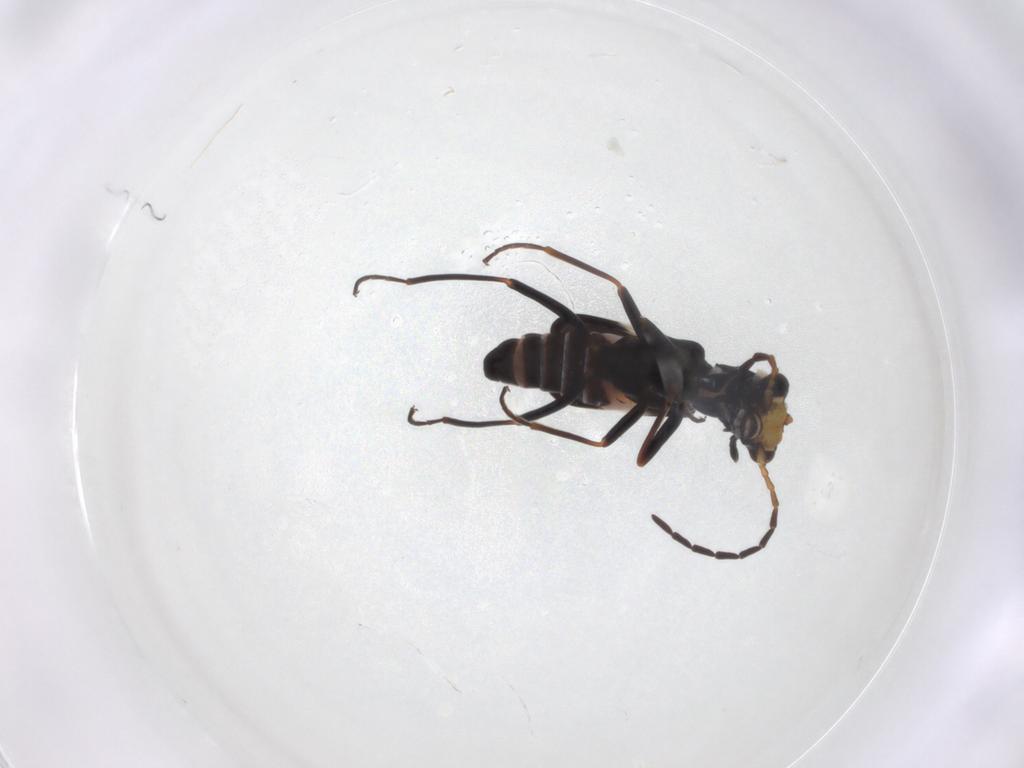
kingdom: Animalia
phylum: Arthropoda
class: Insecta
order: Coleoptera
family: Melyridae
